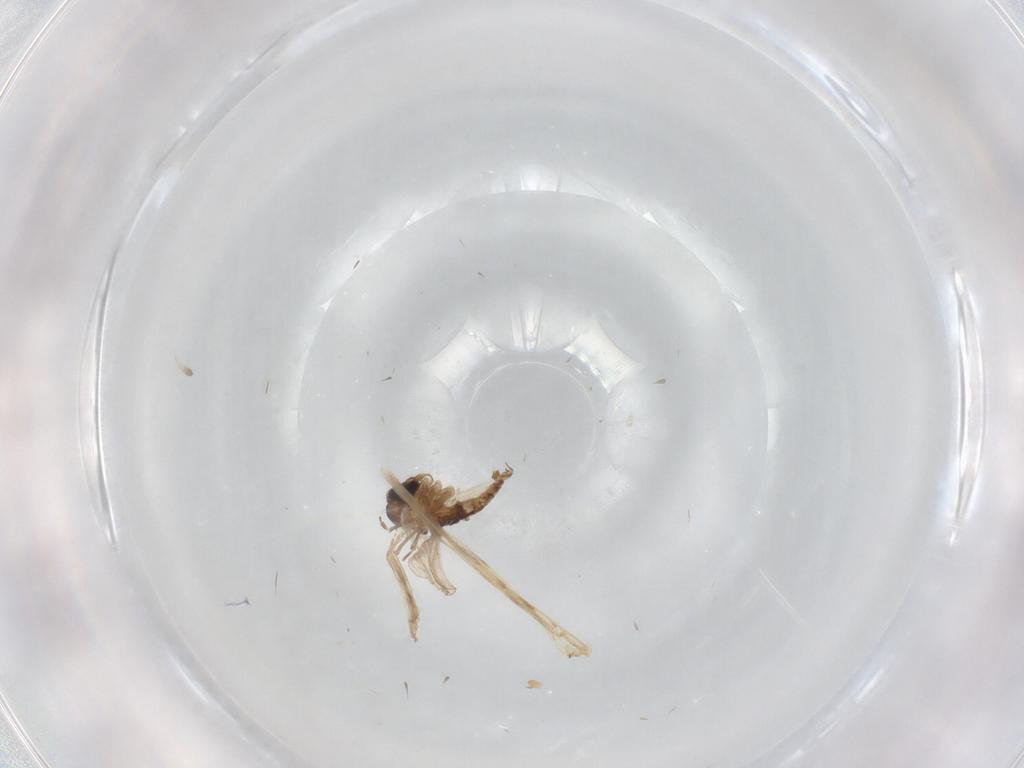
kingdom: Animalia
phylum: Arthropoda
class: Insecta
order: Diptera
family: Psychodidae
